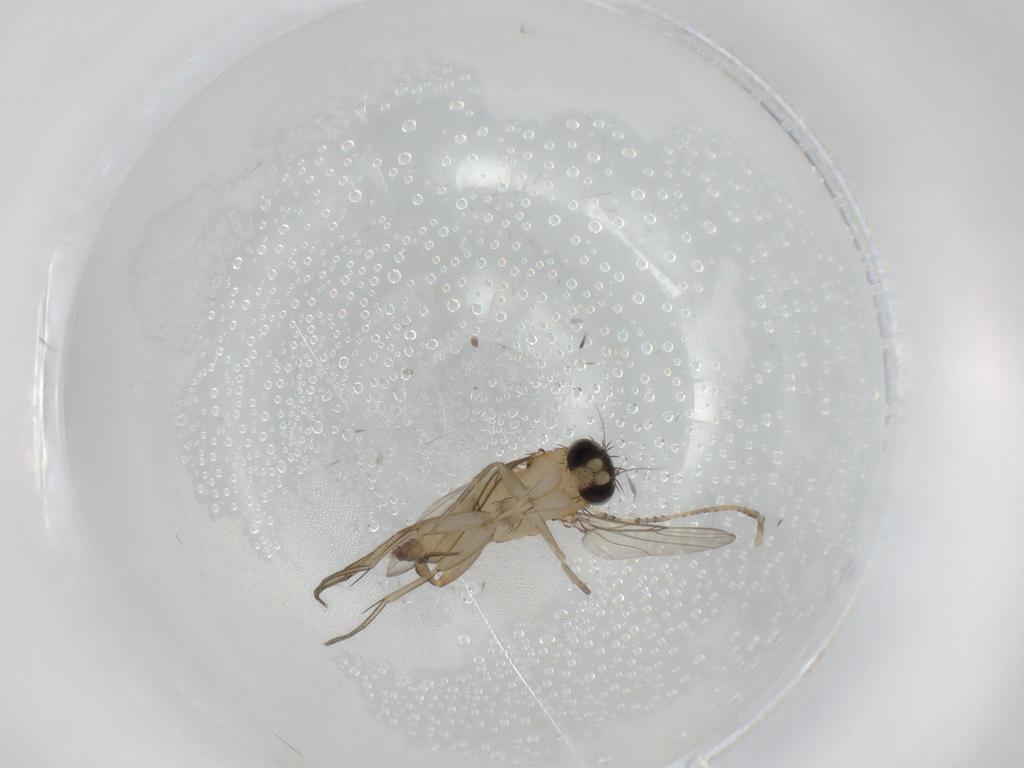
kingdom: Animalia
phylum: Arthropoda
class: Insecta
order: Diptera
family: Phoridae
